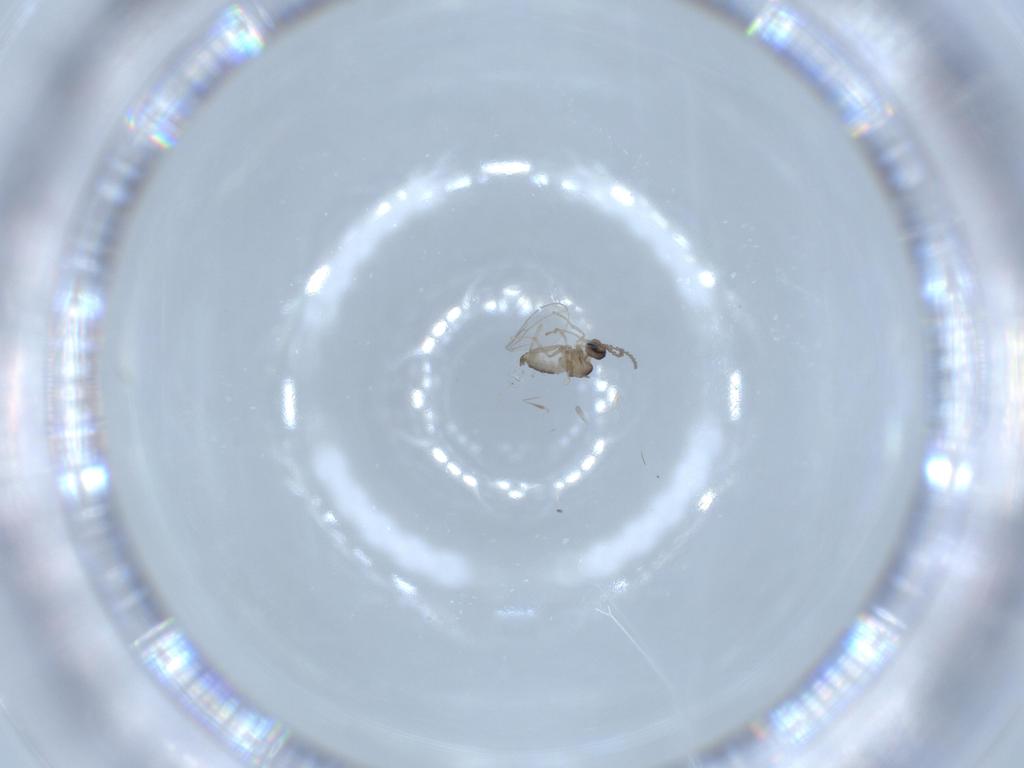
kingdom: Animalia
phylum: Arthropoda
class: Insecta
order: Diptera
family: Cecidomyiidae
